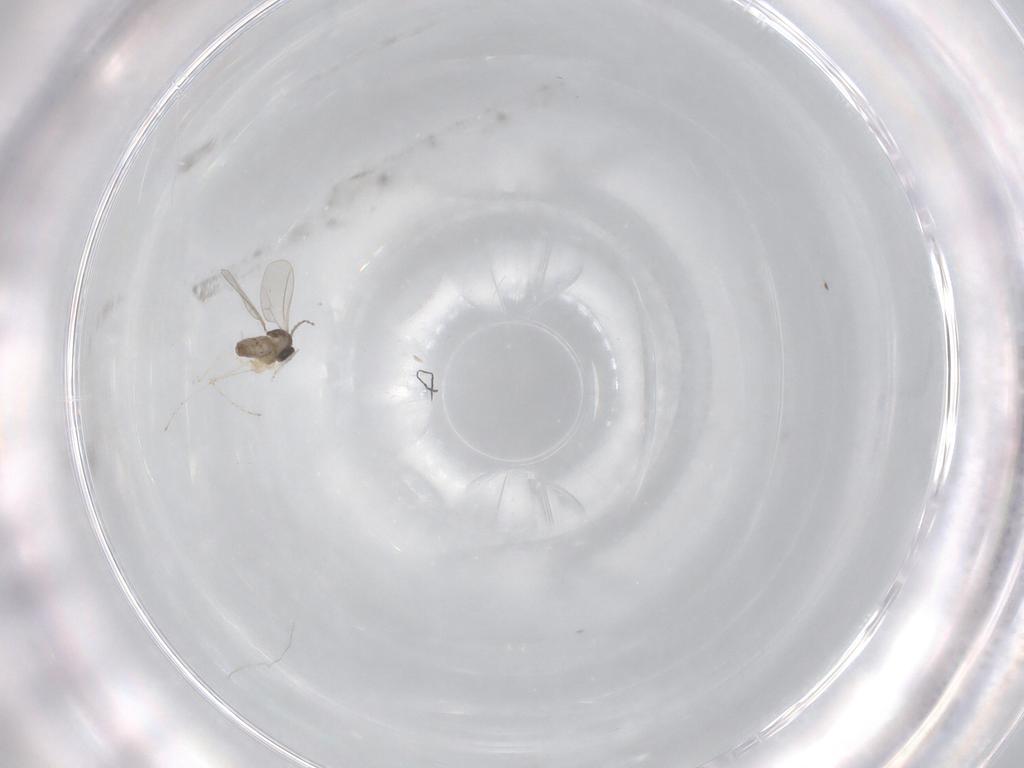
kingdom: Animalia
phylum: Arthropoda
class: Insecta
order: Diptera
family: Cecidomyiidae
